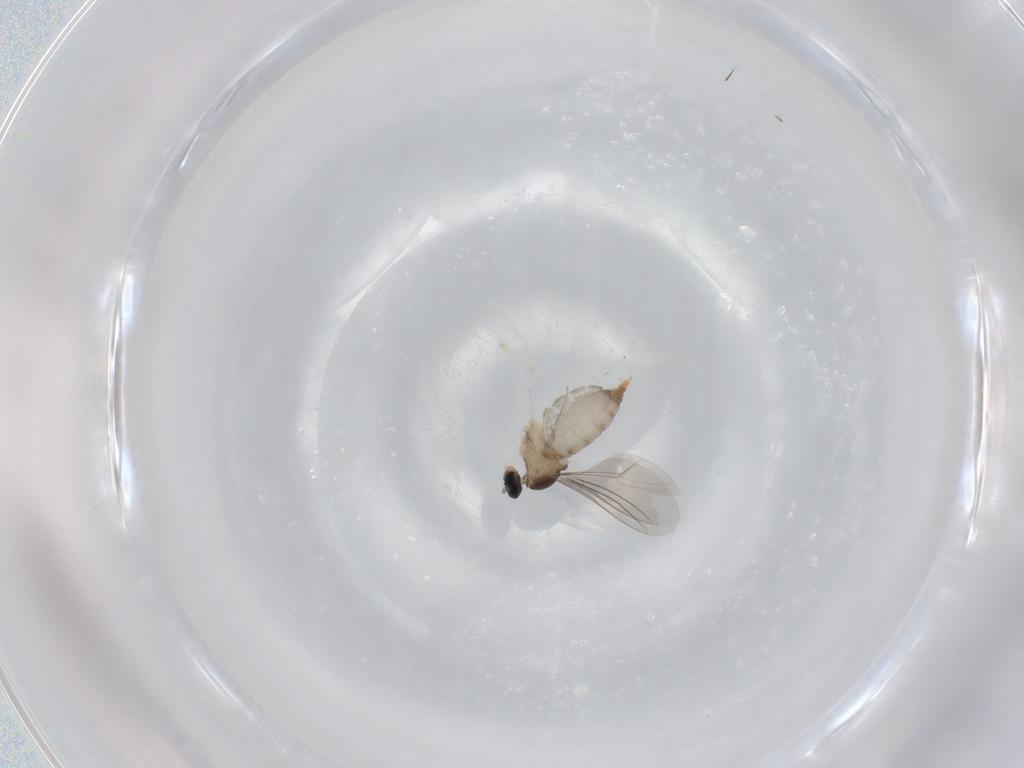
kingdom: Animalia
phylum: Arthropoda
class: Insecta
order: Diptera
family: Cecidomyiidae
